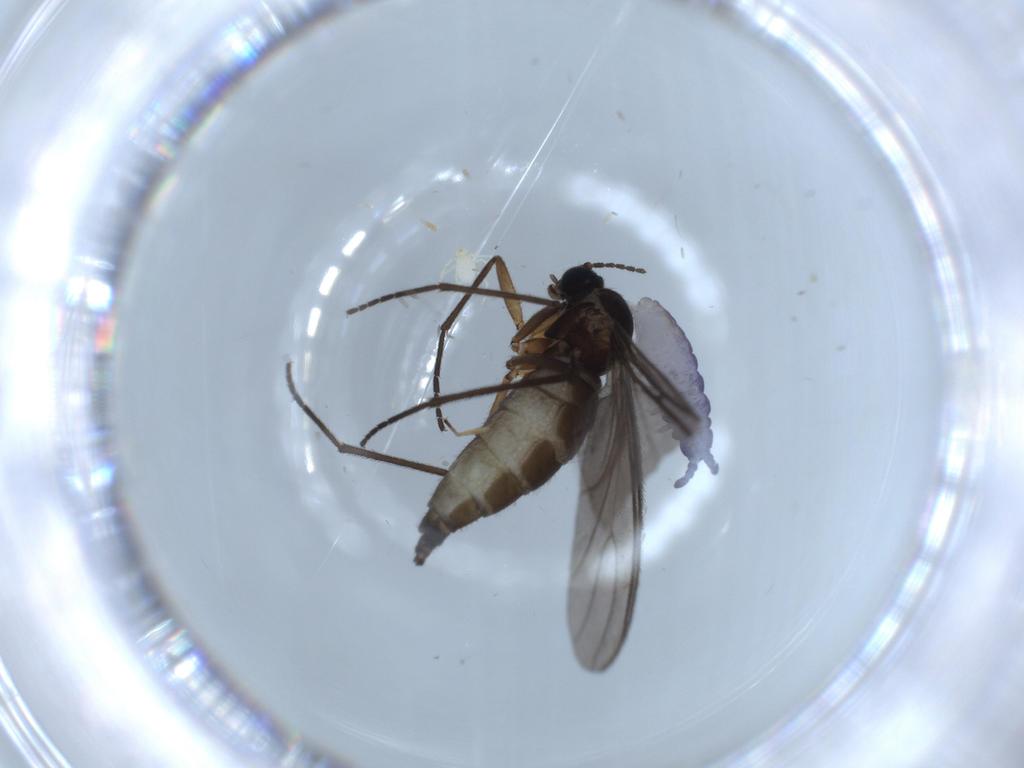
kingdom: Animalia
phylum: Arthropoda
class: Insecta
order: Diptera
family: Sciaridae
